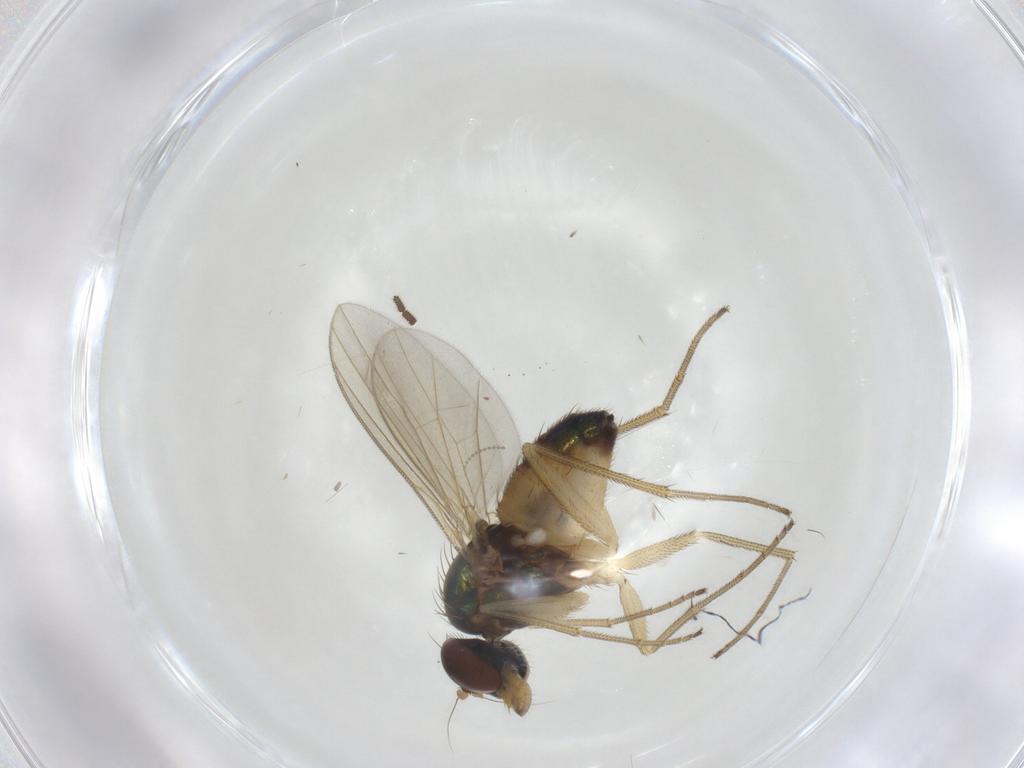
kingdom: Animalia
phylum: Arthropoda
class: Insecta
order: Diptera
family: Dolichopodidae
